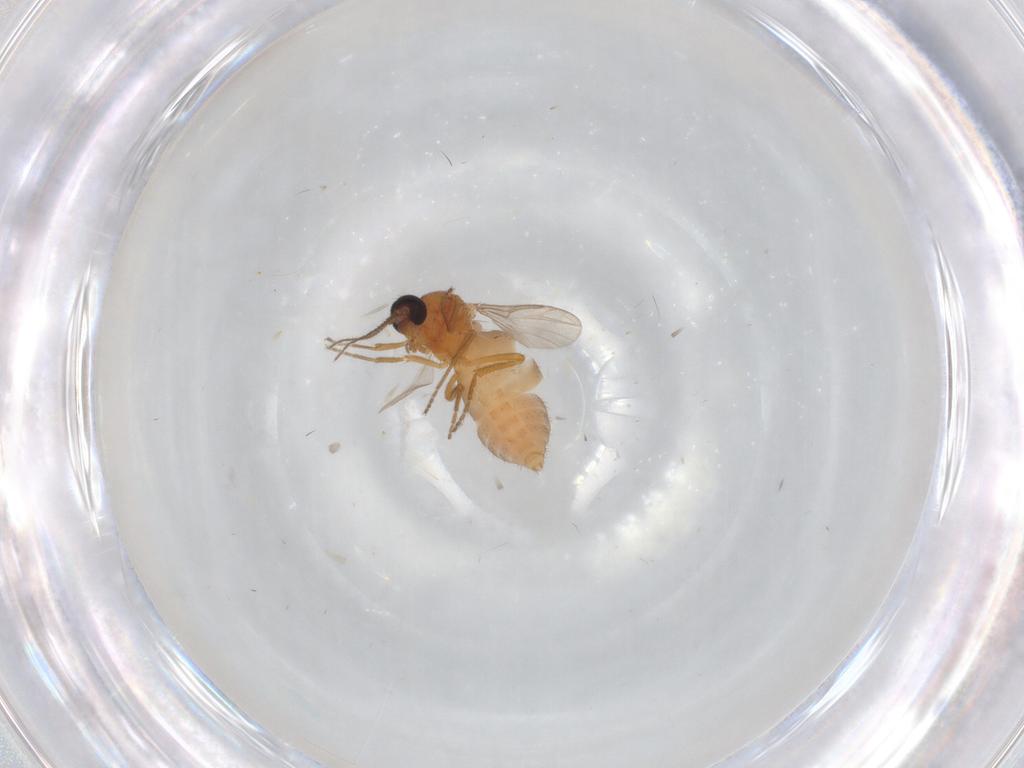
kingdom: Animalia
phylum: Arthropoda
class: Insecta
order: Diptera
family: Ceratopogonidae
